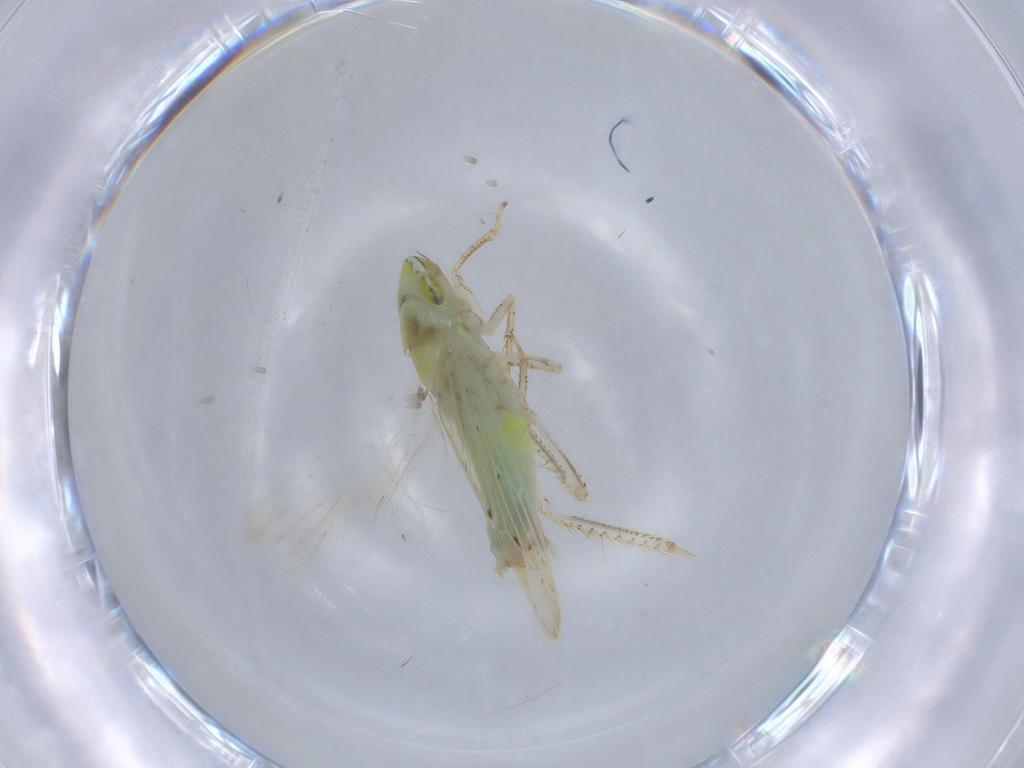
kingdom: Animalia
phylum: Arthropoda
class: Insecta
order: Hemiptera
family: Cicadellidae
